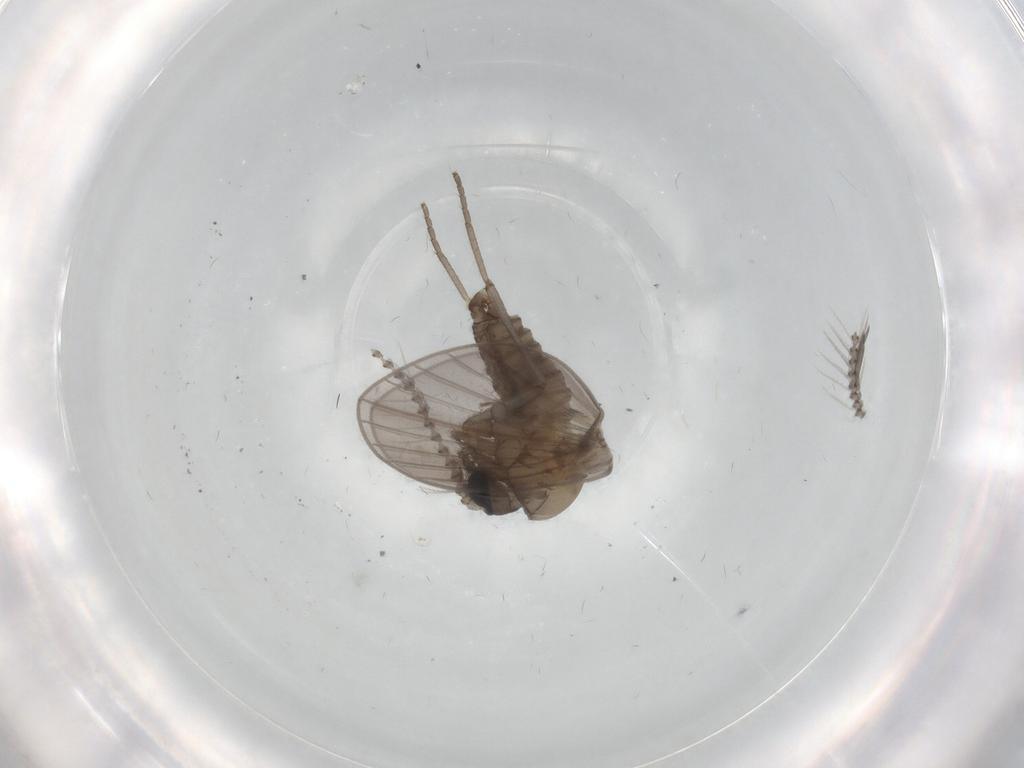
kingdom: Animalia
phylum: Arthropoda
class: Insecta
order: Diptera
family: Psychodidae
